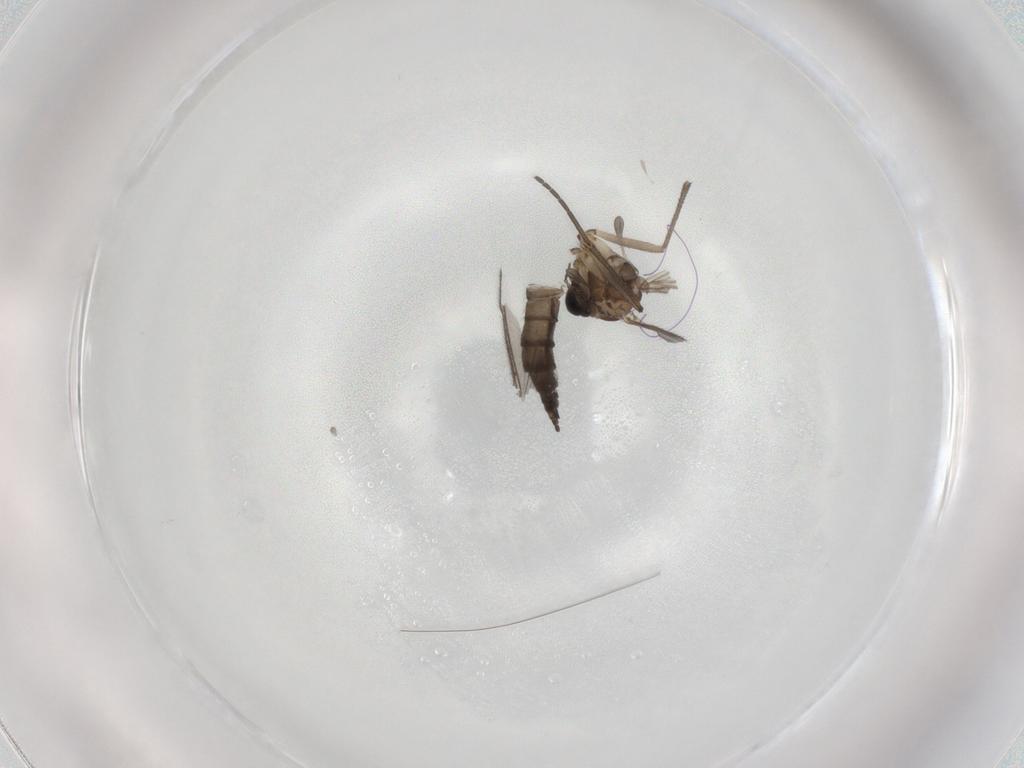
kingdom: Animalia
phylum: Arthropoda
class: Insecta
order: Diptera
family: Sciaridae
